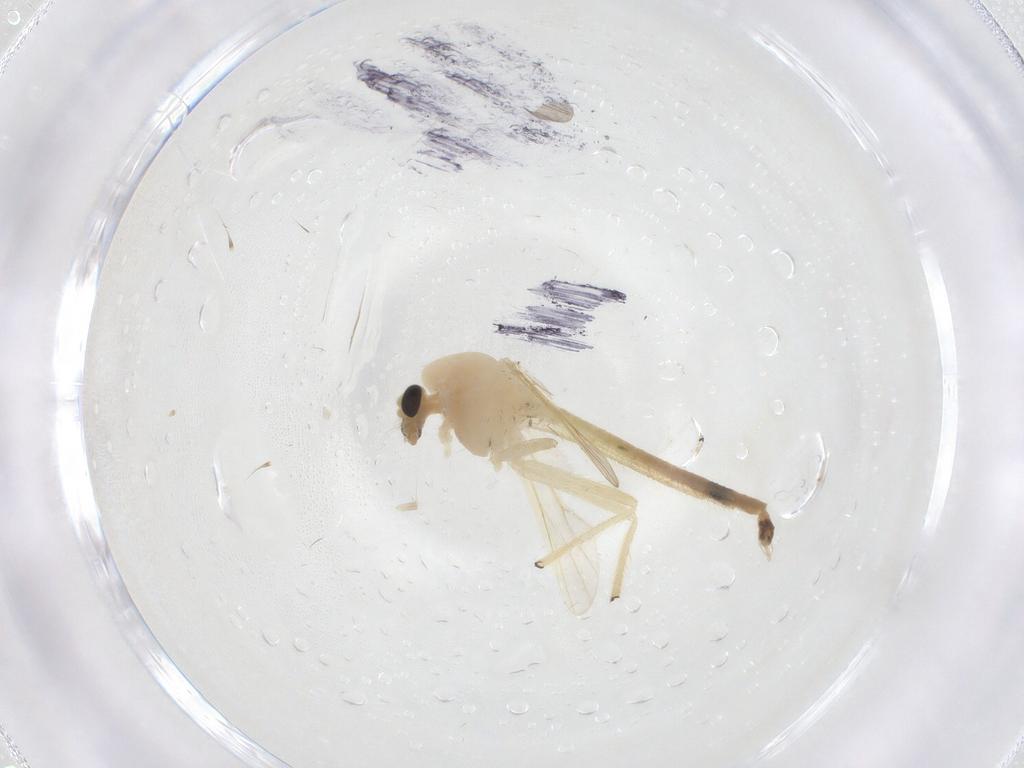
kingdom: Animalia
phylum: Arthropoda
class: Insecta
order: Diptera
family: Chironomidae
